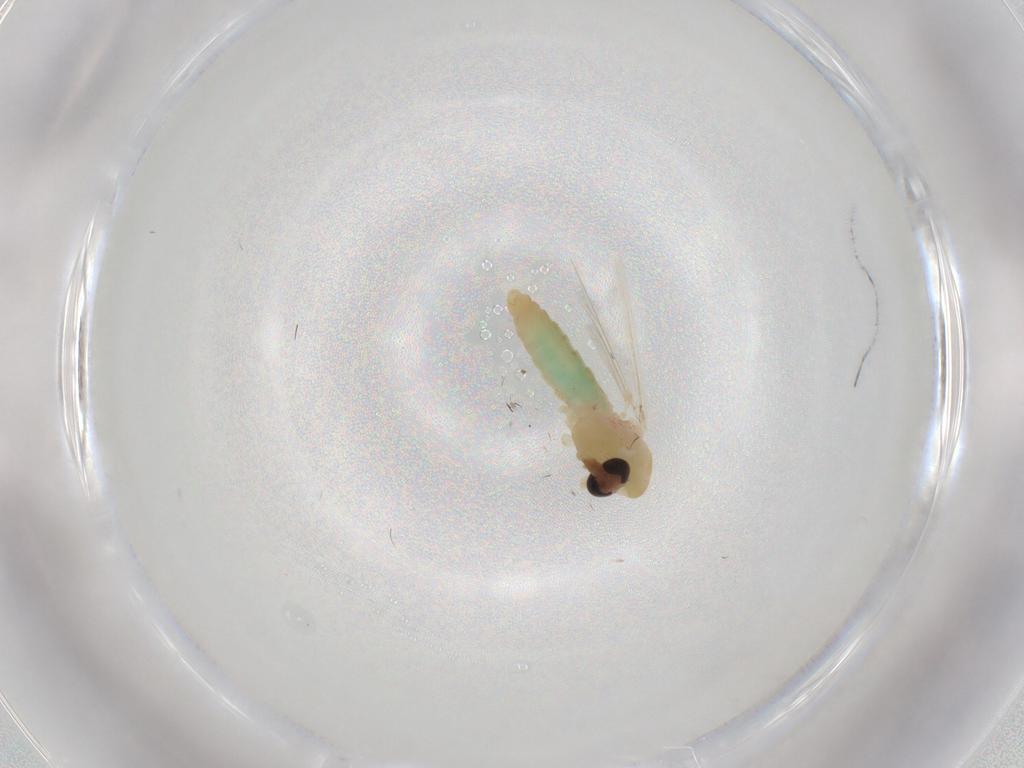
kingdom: Animalia
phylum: Arthropoda
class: Insecta
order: Diptera
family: Chironomidae
